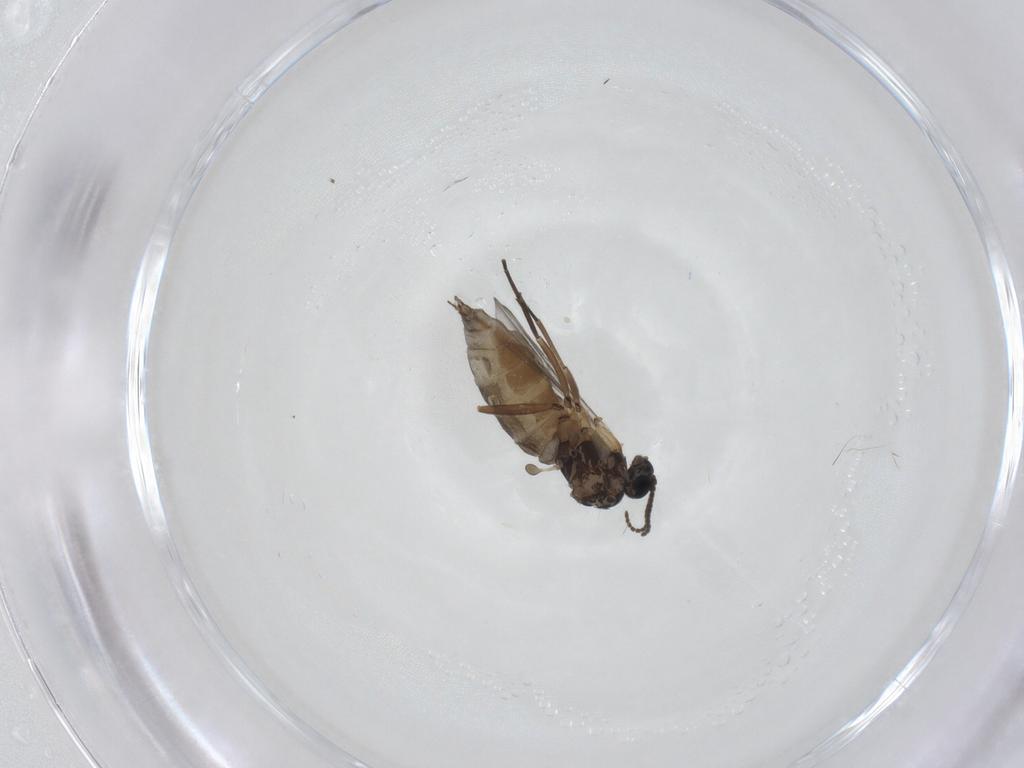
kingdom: Animalia
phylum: Arthropoda
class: Insecta
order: Diptera
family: Sciaridae
